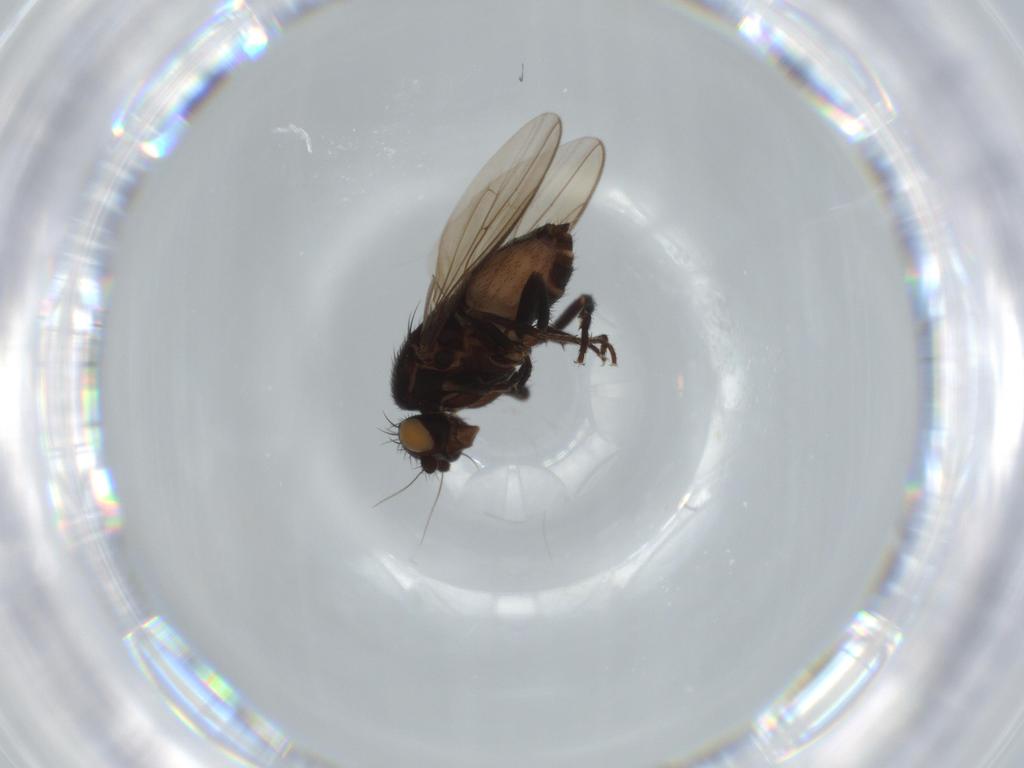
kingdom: Animalia
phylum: Arthropoda
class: Insecta
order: Diptera
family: Sphaeroceridae
